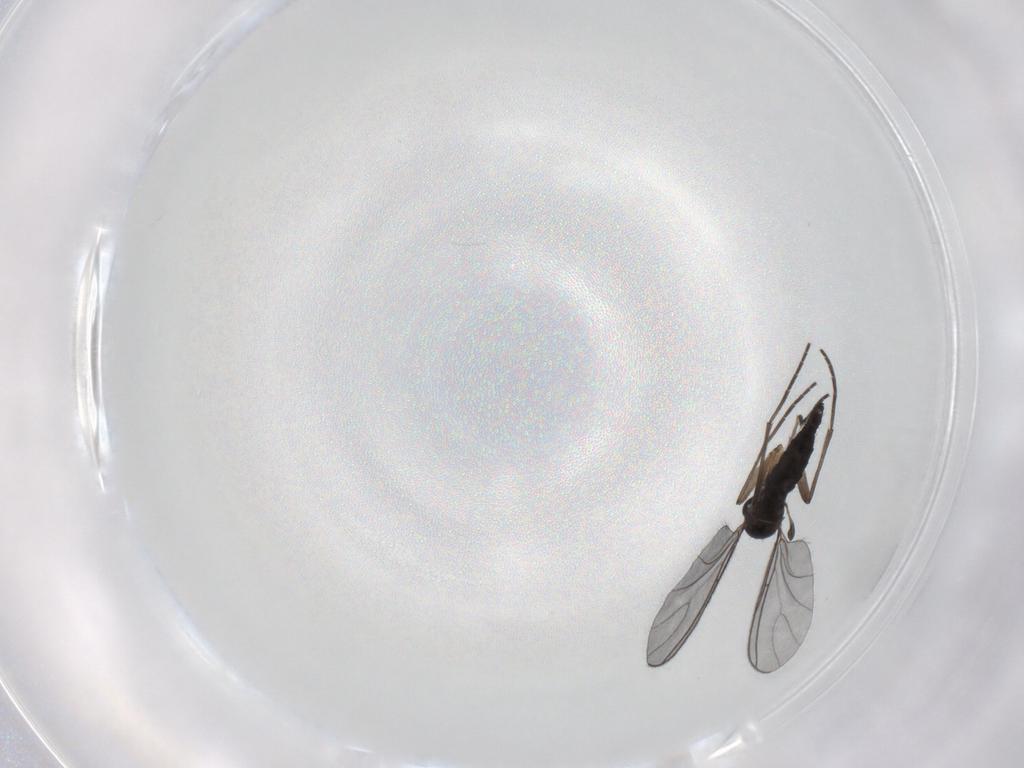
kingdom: Animalia
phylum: Arthropoda
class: Insecta
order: Diptera
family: Sciaridae
